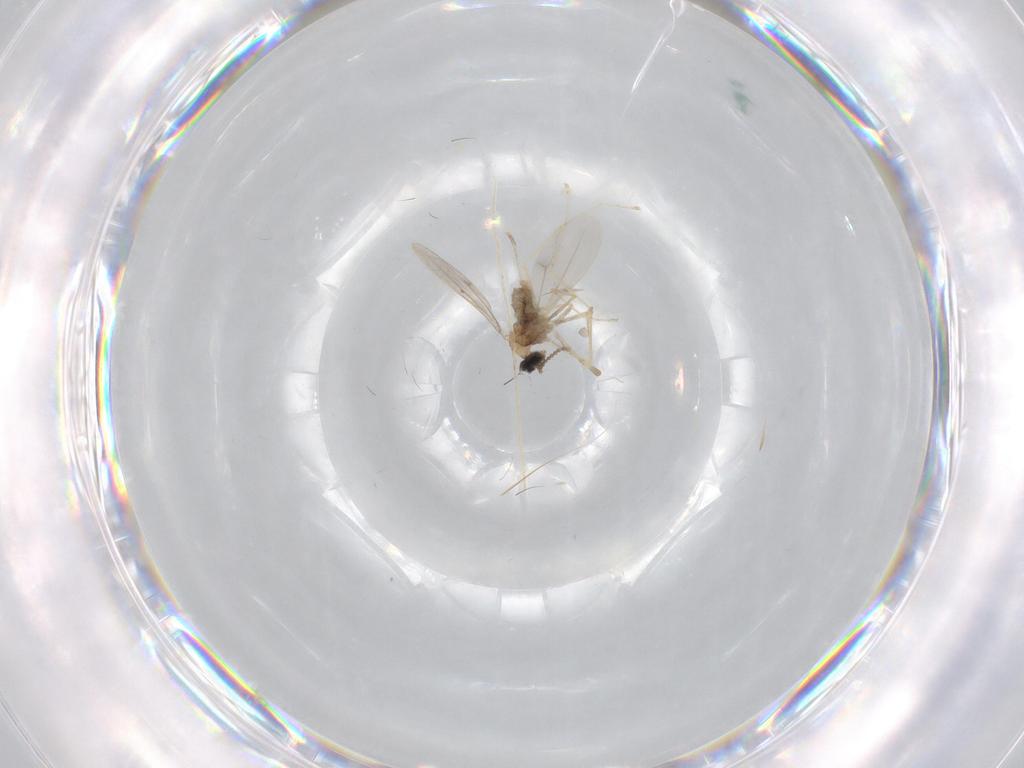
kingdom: Animalia
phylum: Arthropoda
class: Insecta
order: Diptera
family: Cecidomyiidae
